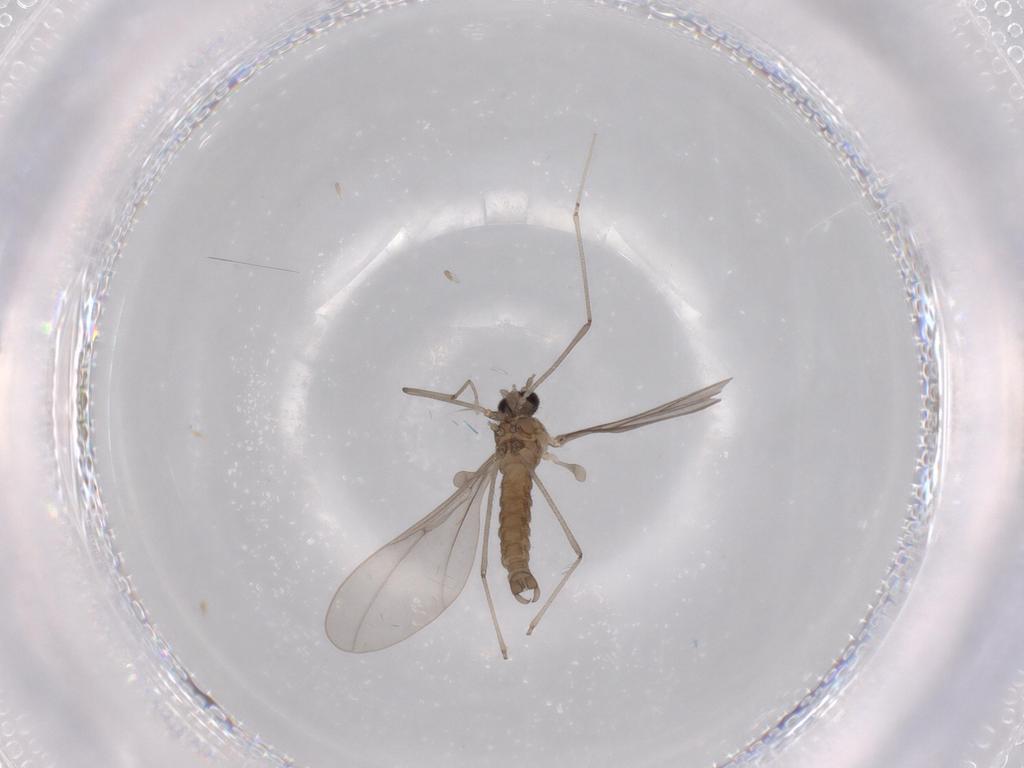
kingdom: Animalia
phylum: Arthropoda
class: Insecta
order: Diptera
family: Cecidomyiidae
